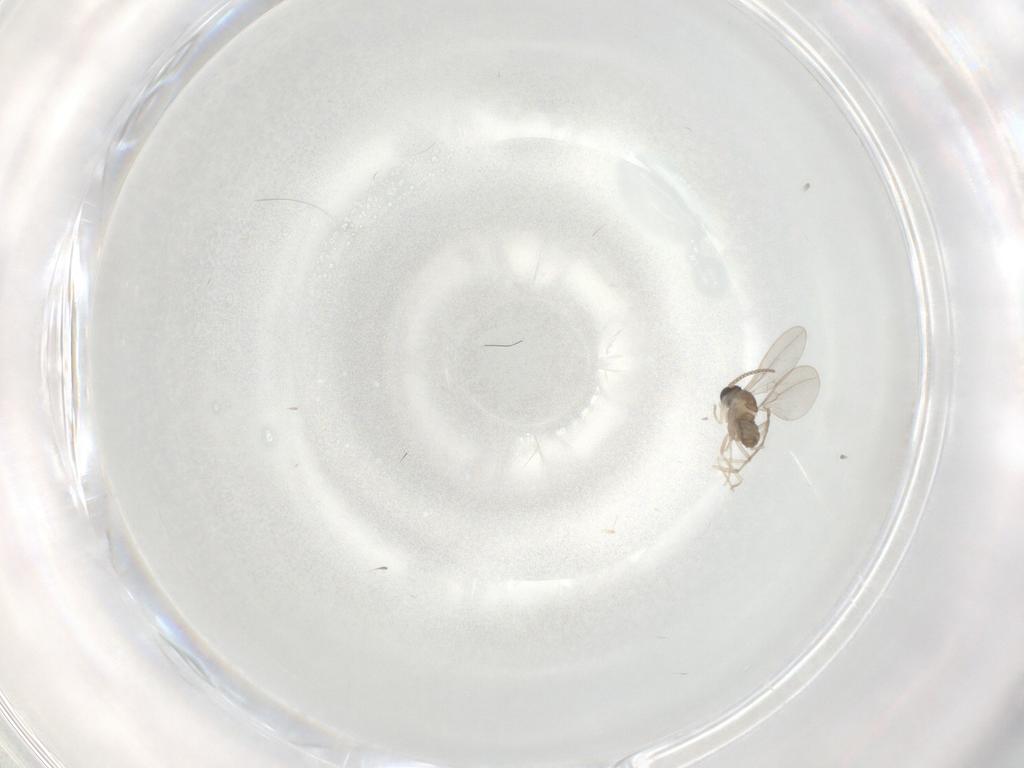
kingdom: Animalia
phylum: Arthropoda
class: Insecta
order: Diptera
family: Cecidomyiidae
